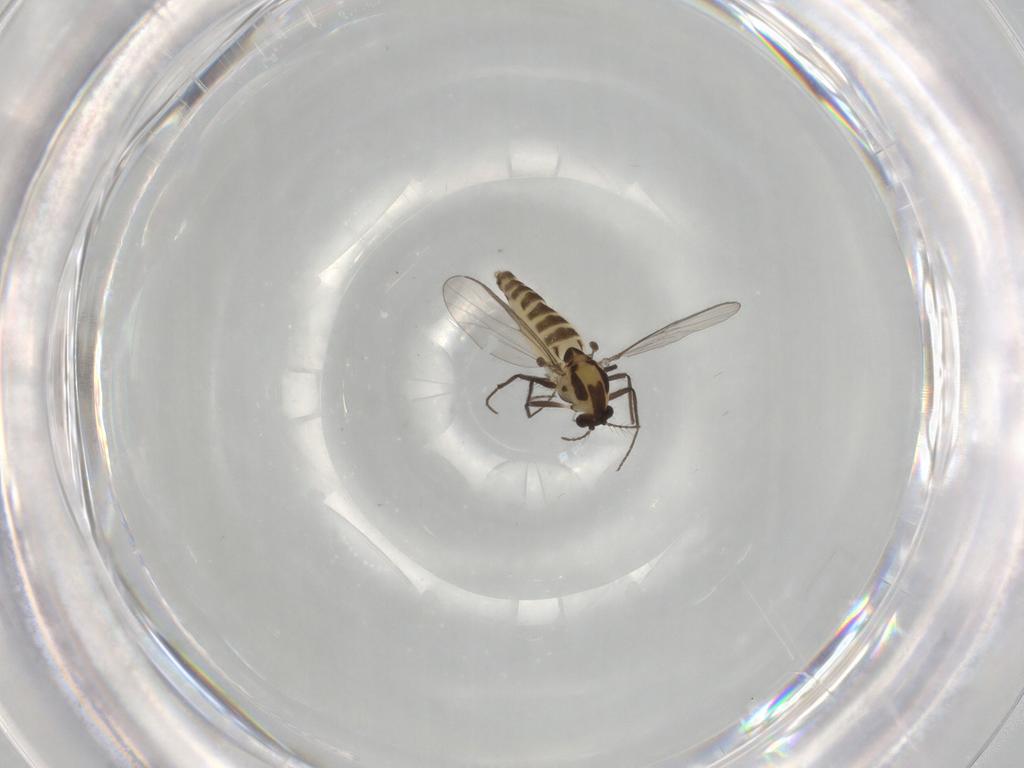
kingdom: Animalia
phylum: Arthropoda
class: Insecta
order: Diptera
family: Chironomidae
